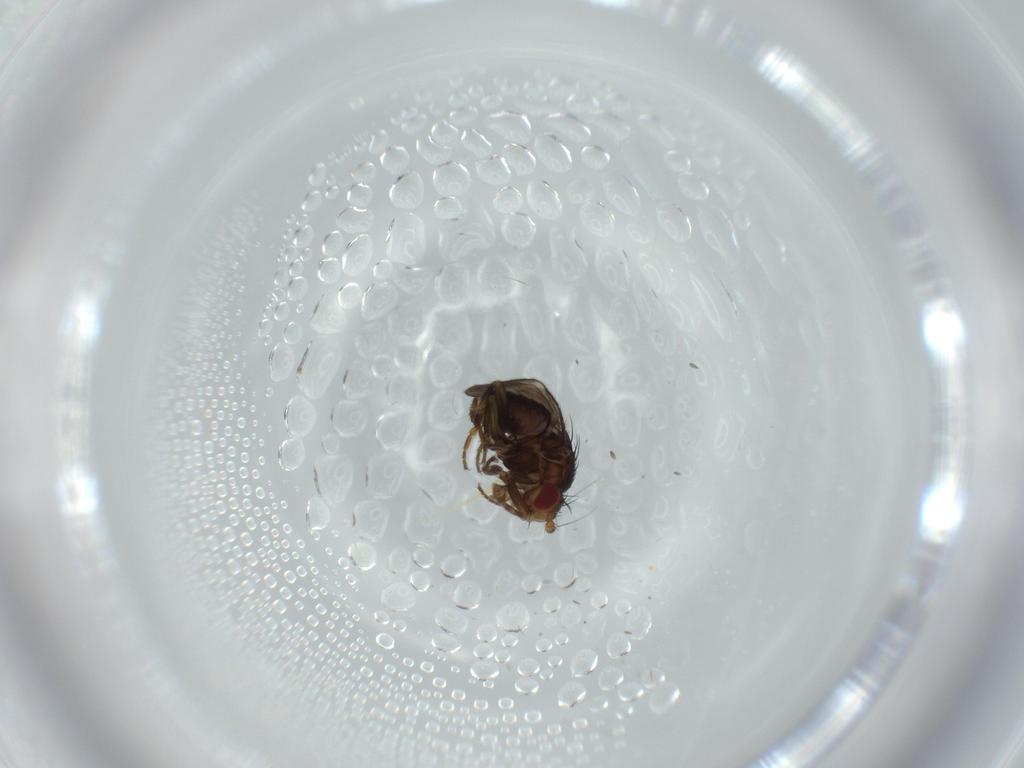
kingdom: Animalia
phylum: Arthropoda
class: Insecta
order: Diptera
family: Sphaeroceridae
